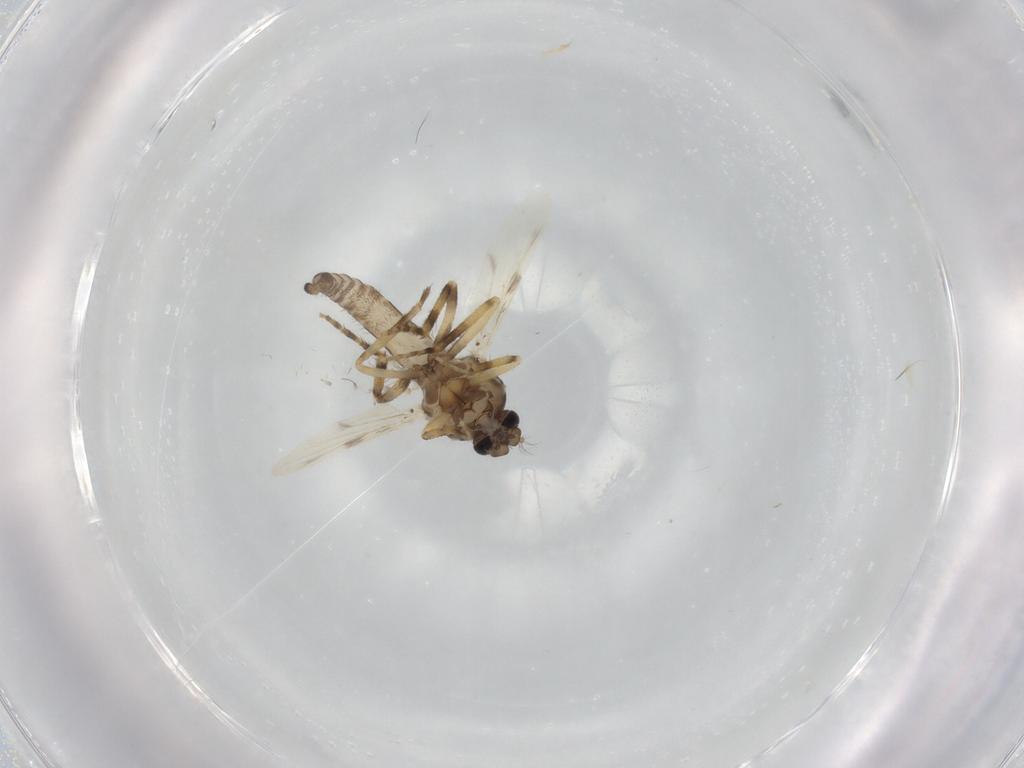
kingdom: Animalia
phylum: Arthropoda
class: Insecta
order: Diptera
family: Ceratopogonidae
